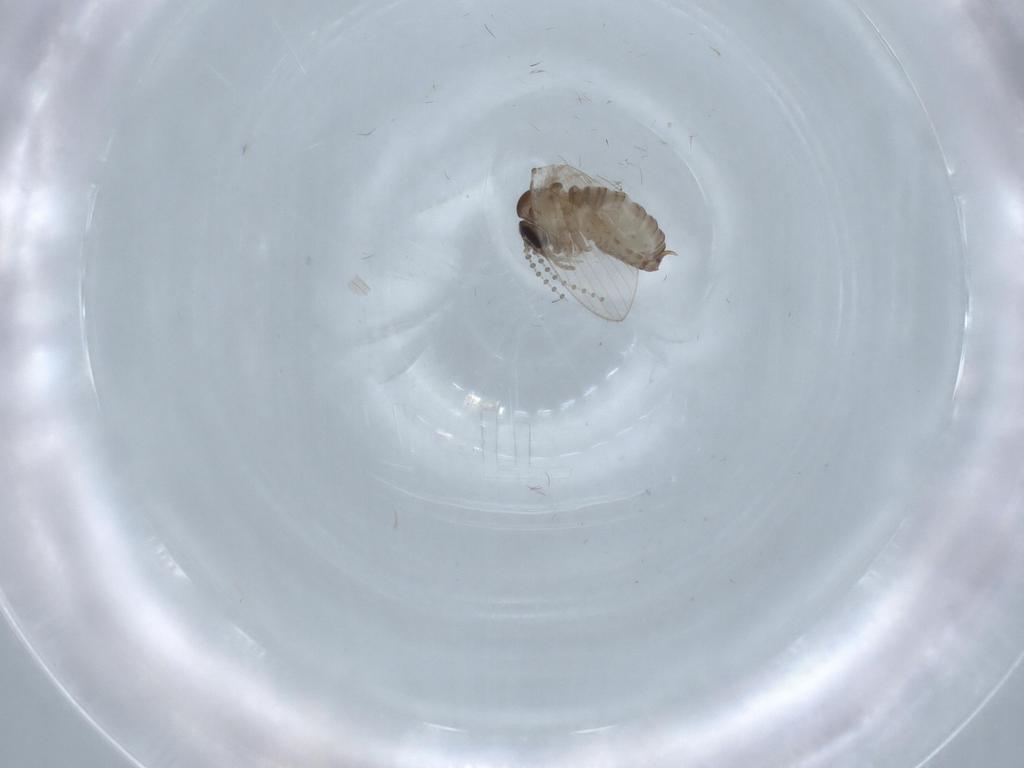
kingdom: Animalia
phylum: Arthropoda
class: Insecta
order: Diptera
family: Psychodidae
